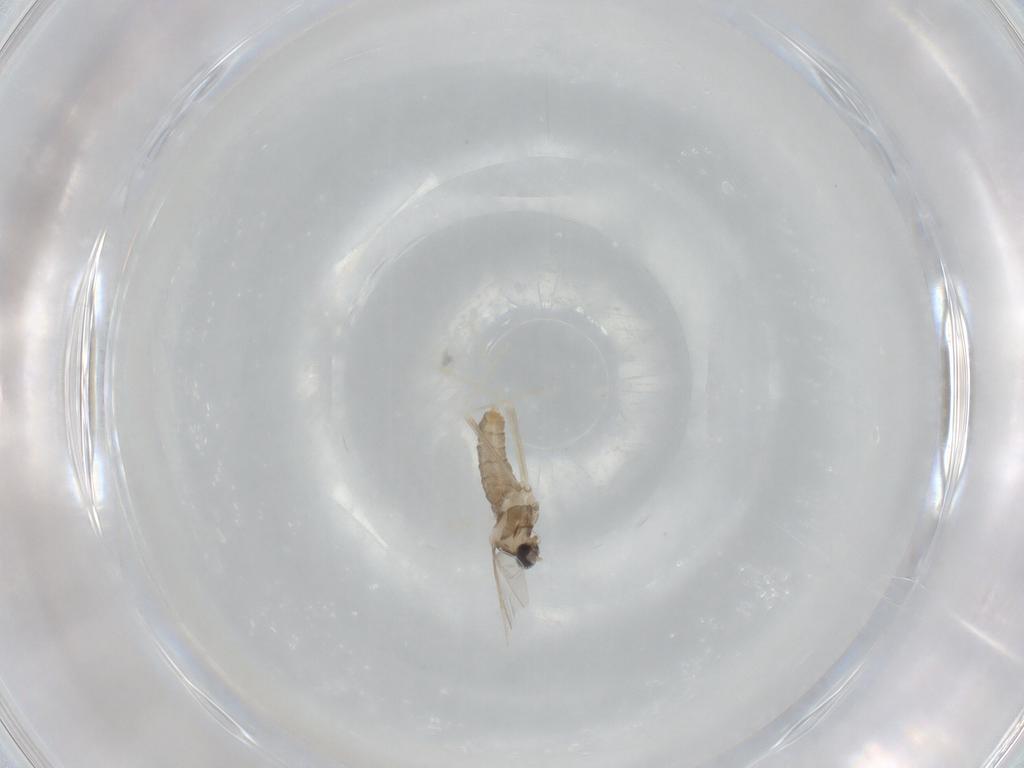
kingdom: Animalia
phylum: Arthropoda
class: Insecta
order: Diptera
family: Cecidomyiidae
